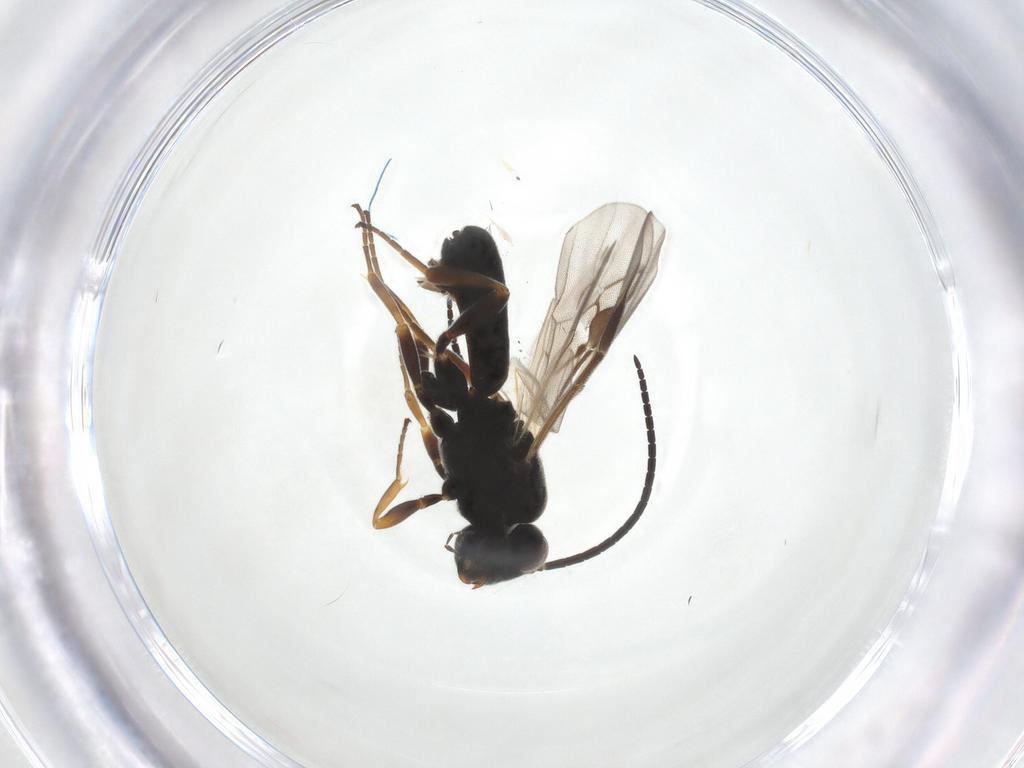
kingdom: Animalia
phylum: Arthropoda
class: Insecta
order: Hymenoptera
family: Braconidae
